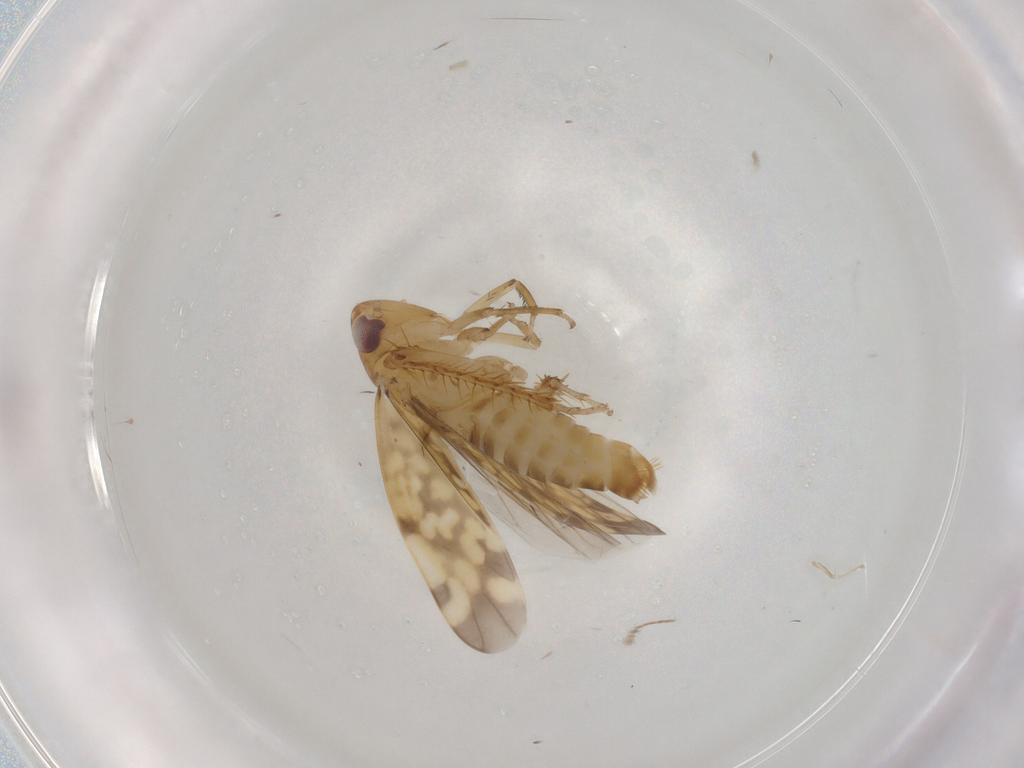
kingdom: Animalia
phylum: Arthropoda
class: Insecta
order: Hemiptera
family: Cicadellidae
